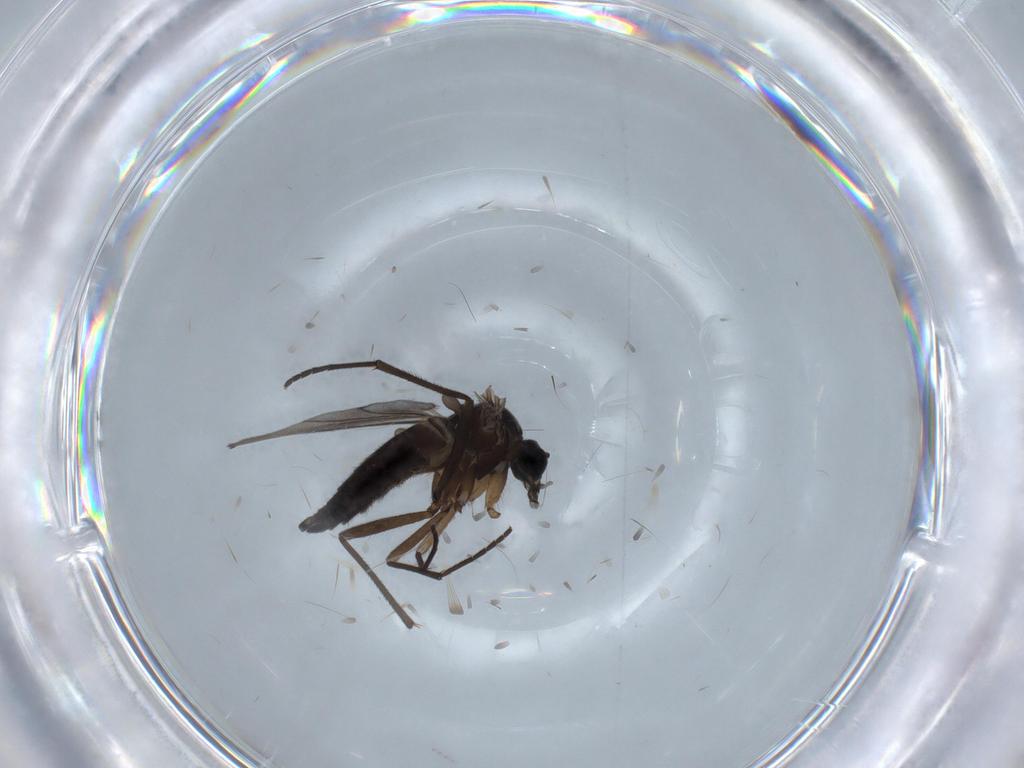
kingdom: Animalia
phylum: Arthropoda
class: Insecta
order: Diptera
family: Sciaridae
